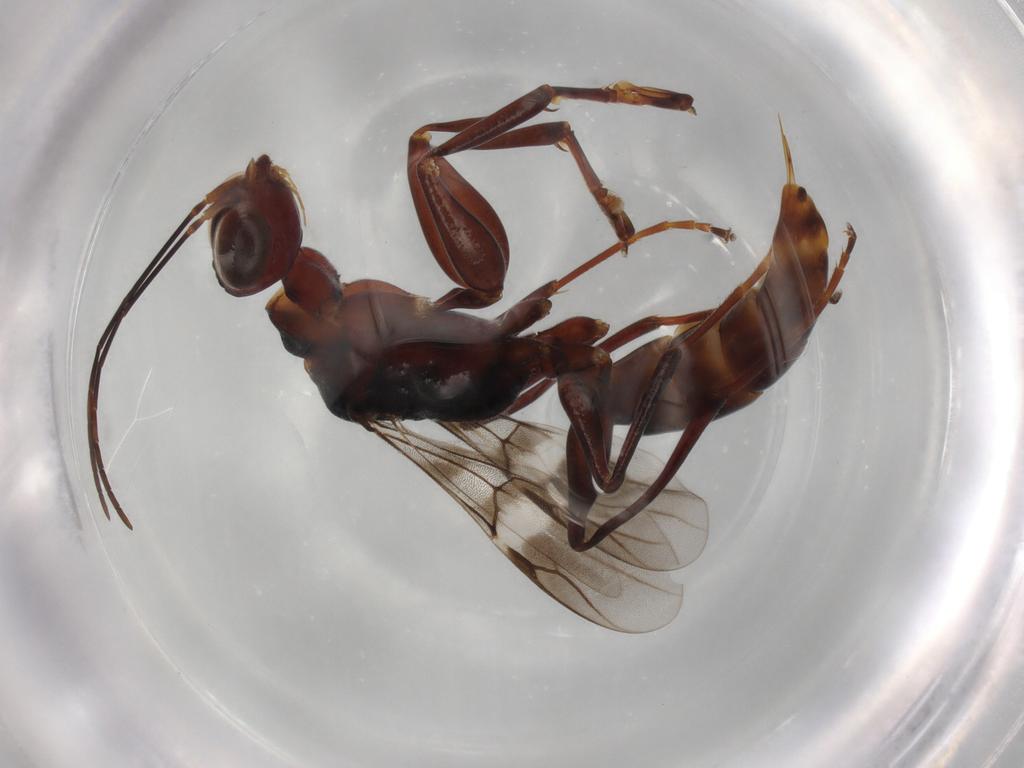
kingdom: Animalia
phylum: Arthropoda
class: Insecta
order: Hymenoptera
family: Dryinidae
